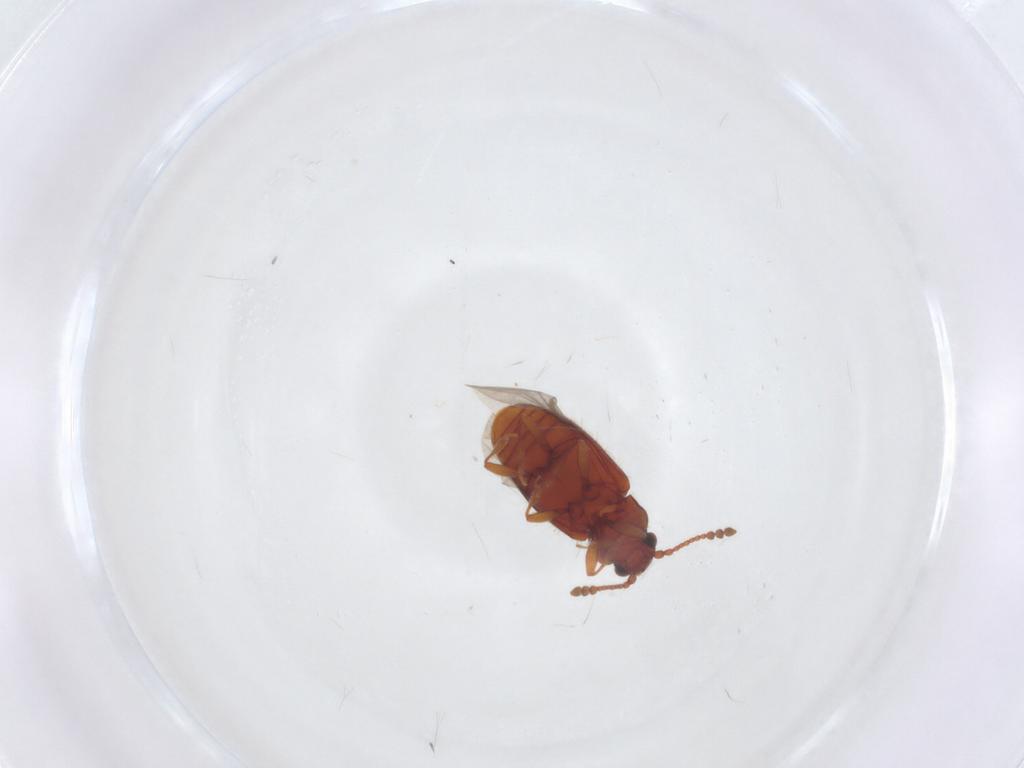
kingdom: Animalia
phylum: Arthropoda
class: Insecta
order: Coleoptera
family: Cryptophagidae
